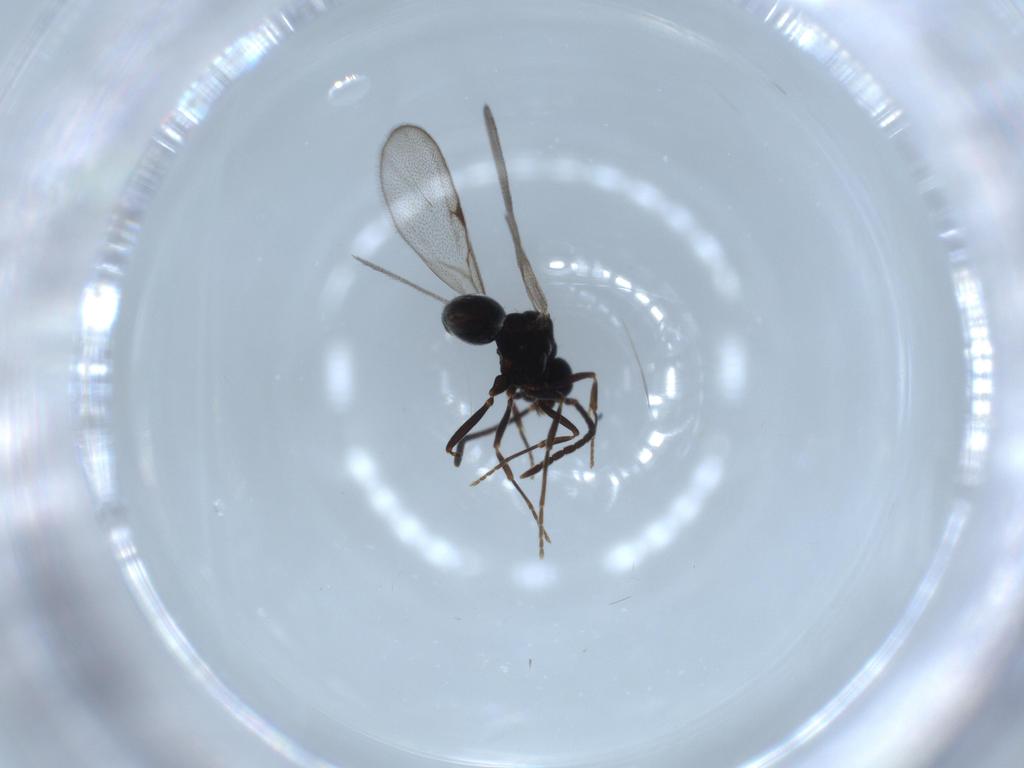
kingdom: Animalia
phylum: Arthropoda
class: Insecta
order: Hymenoptera
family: Formicidae
